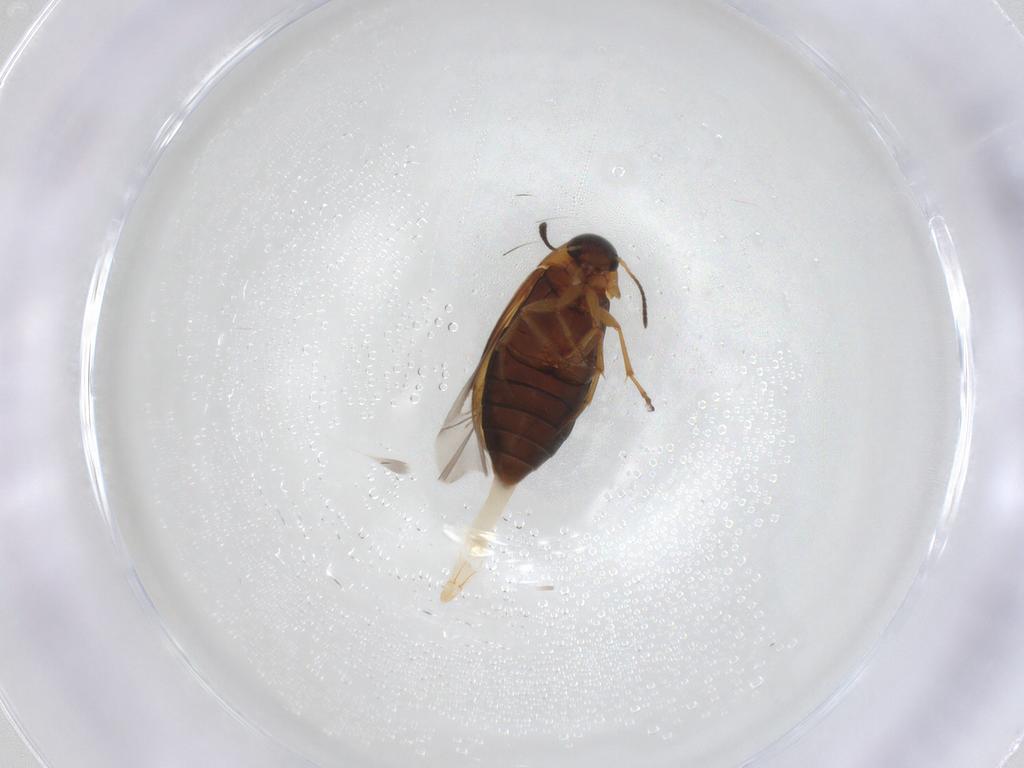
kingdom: Animalia
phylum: Arthropoda
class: Insecta
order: Coleoptera
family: Scraptiidae
